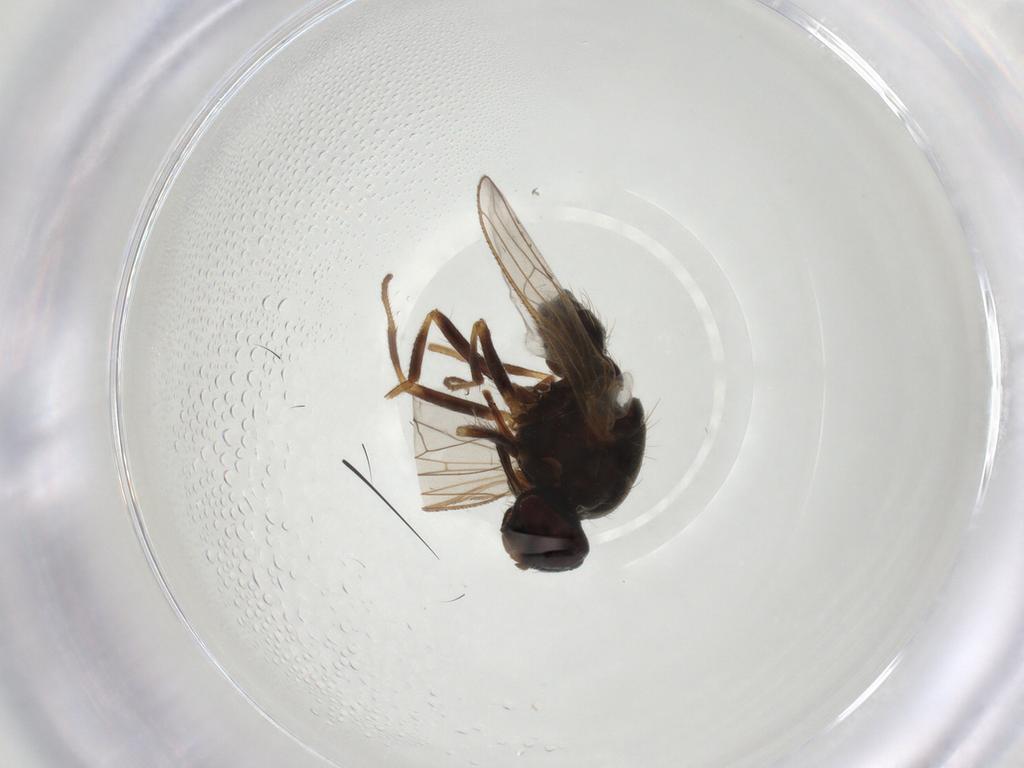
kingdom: Animalia
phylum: Arthropoda
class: Insecta
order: Diptera
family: Muscidae
